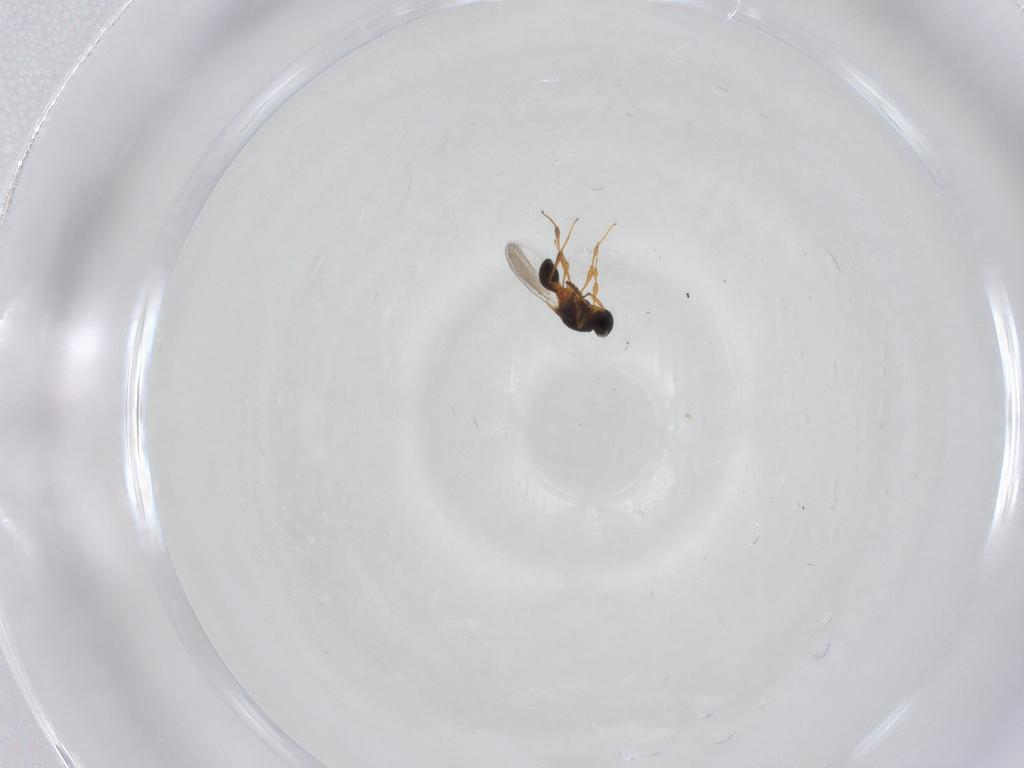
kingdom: Animalia
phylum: Arthropoda
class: Insecta
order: Hymenoptera
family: Platygastridae
